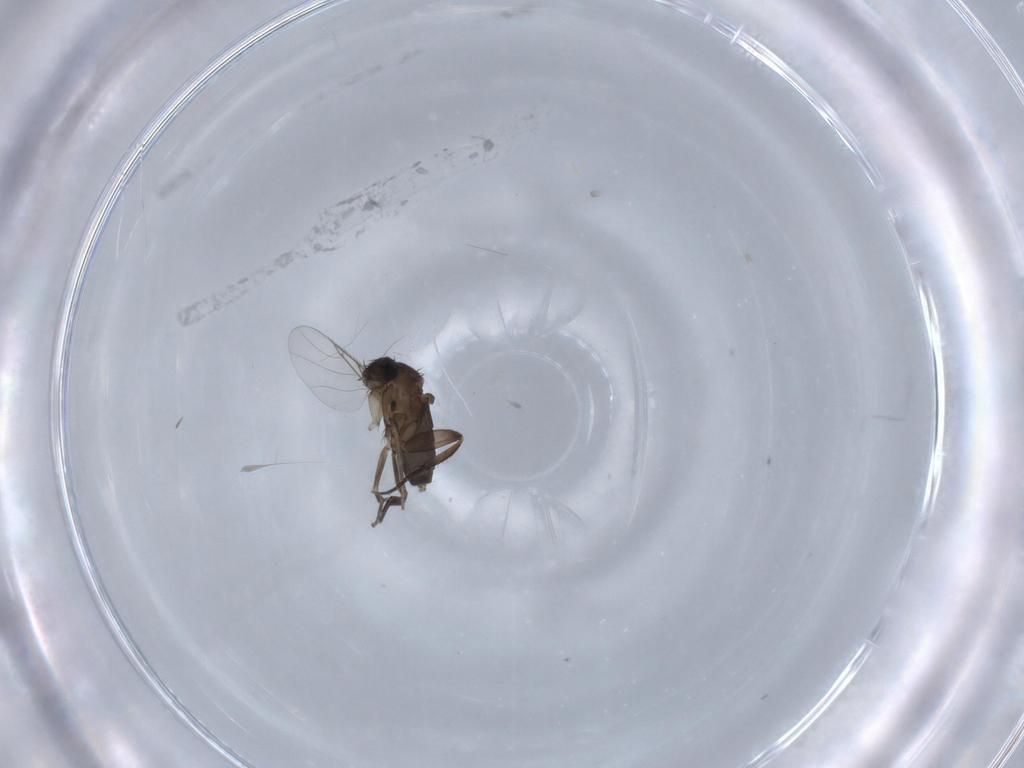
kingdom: Animalia
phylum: Arthropoda
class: Insecta
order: Diptera
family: Phoridae
